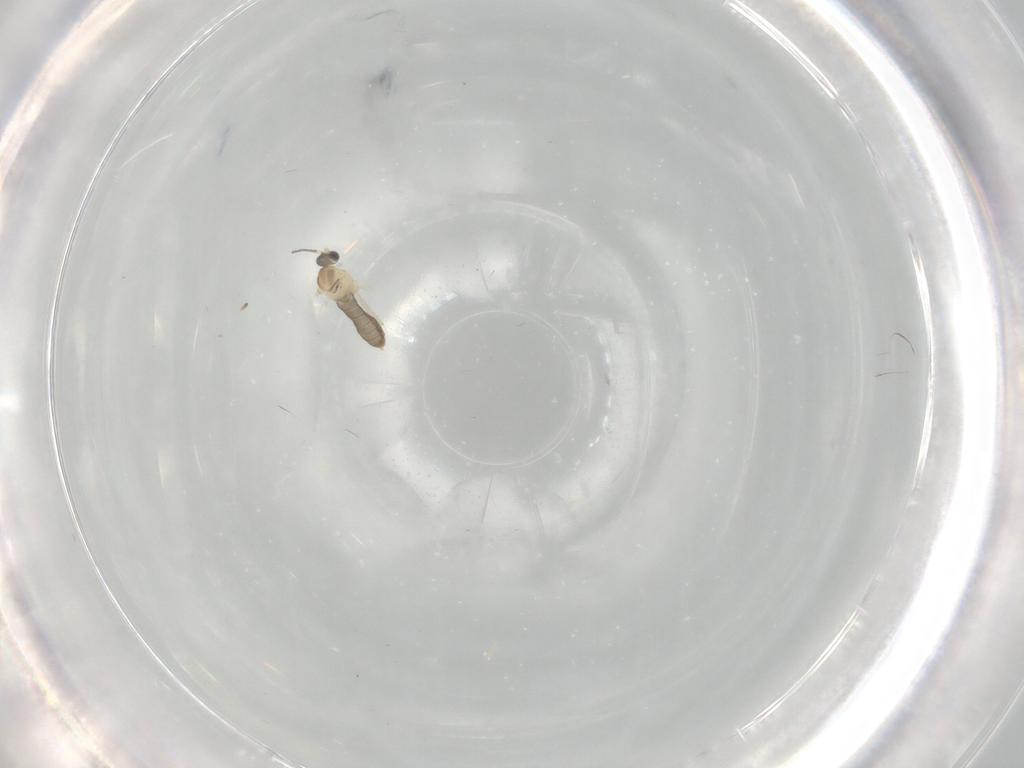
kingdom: Animalia
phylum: Arthropoda
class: Insecta
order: Diptera
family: Cecidomyiidae
